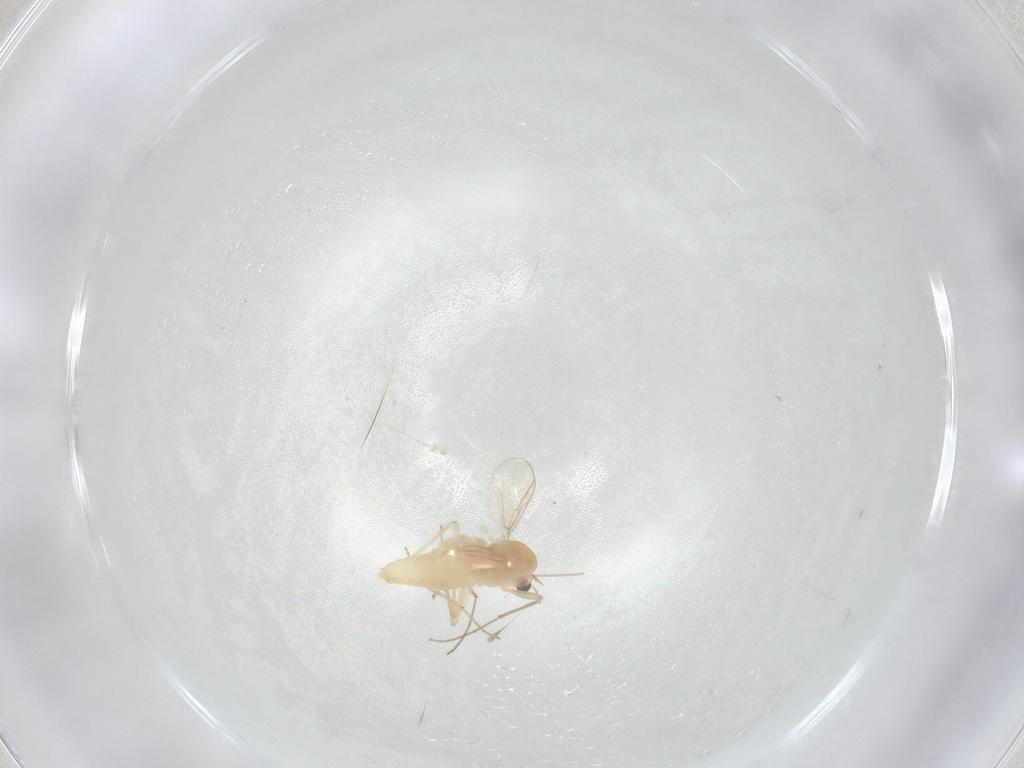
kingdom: Animalia
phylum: Arthropoda
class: Insecta
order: Diptera
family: Chironomidae
